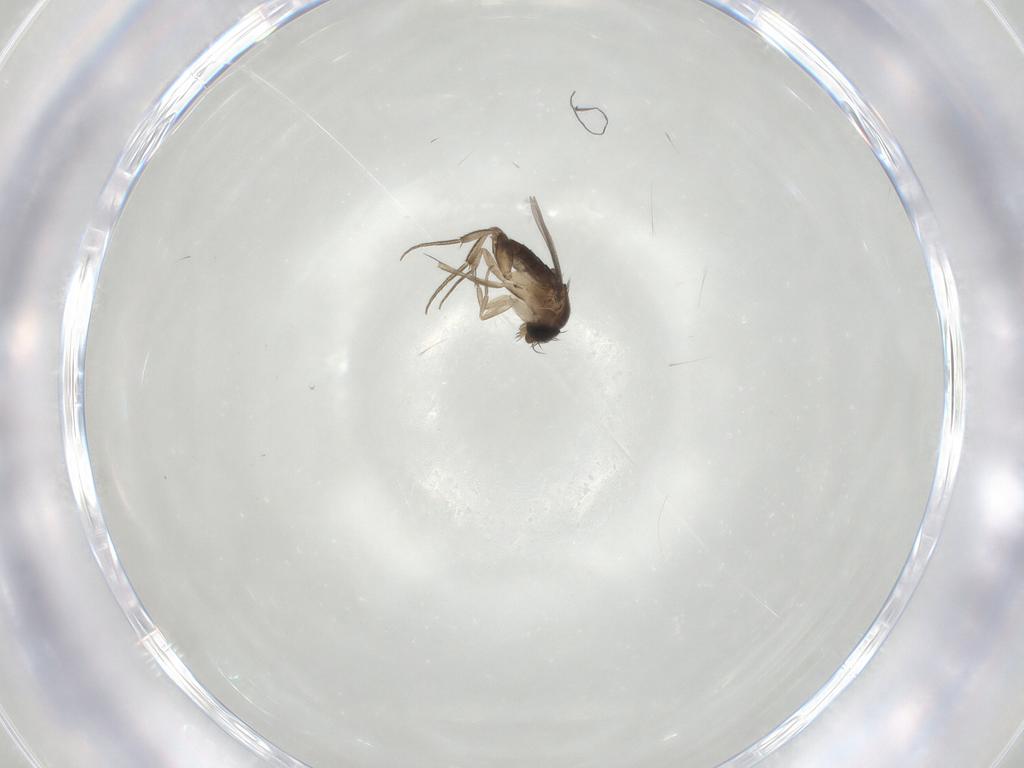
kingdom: Animalia
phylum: Arthropoda
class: Insecta
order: Diptera
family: Phoridae
